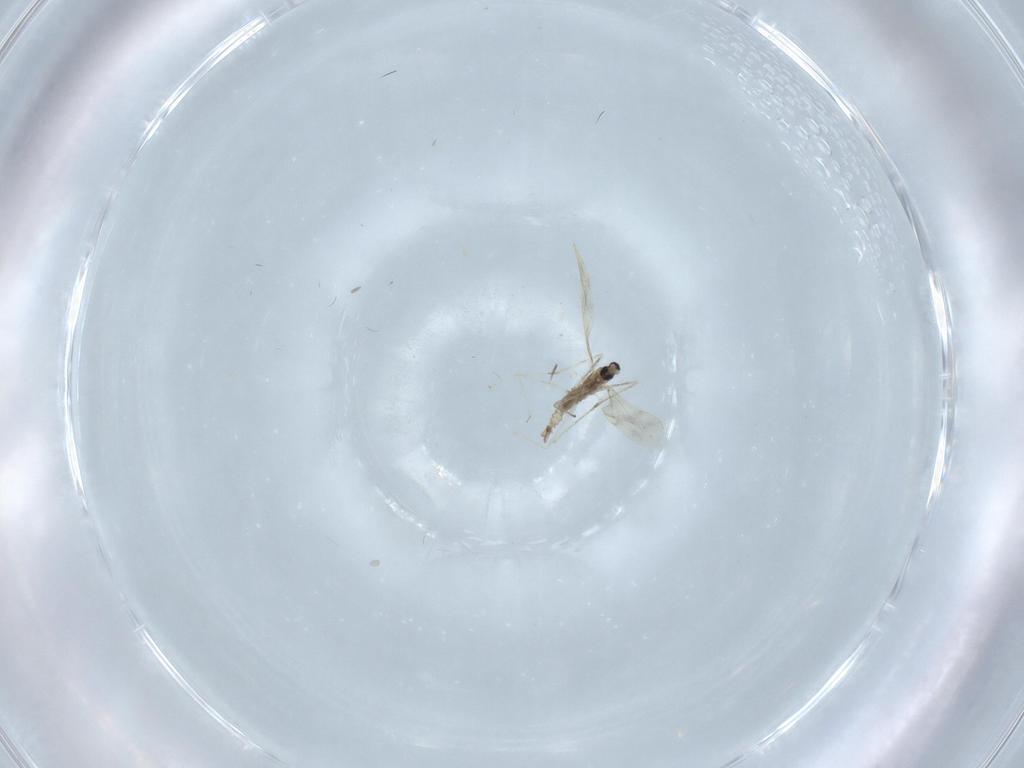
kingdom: Animalia
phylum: Arthropoda
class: Insecta
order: Diptera
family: Cecidomyiidae
